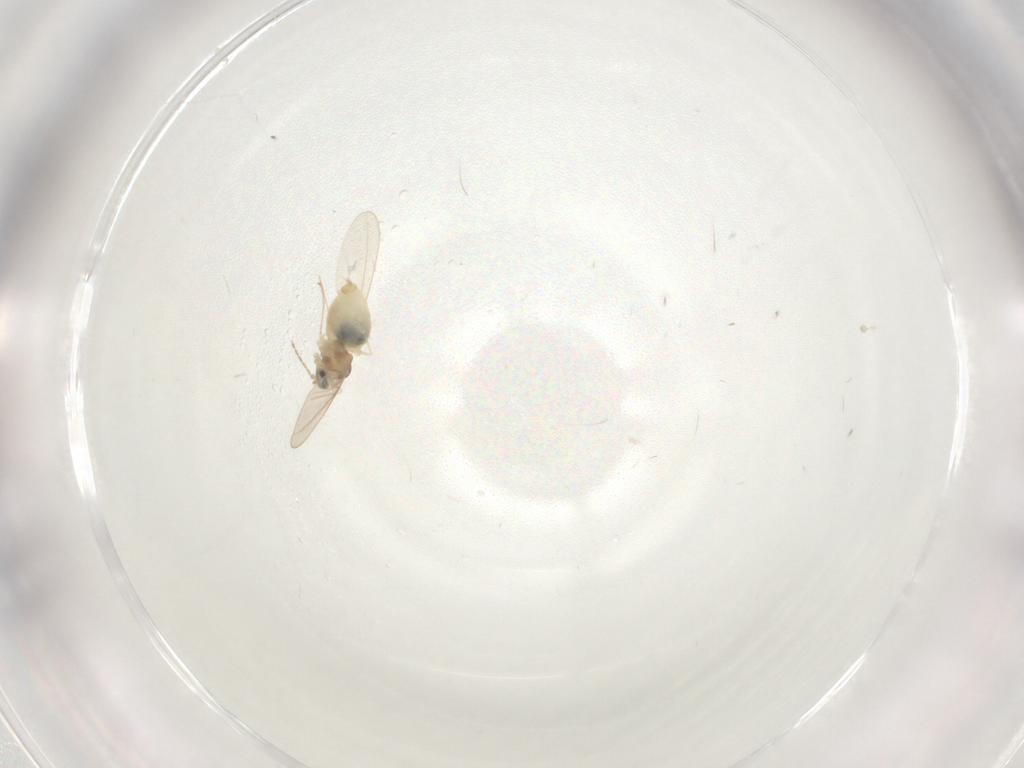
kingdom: Animalia
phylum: Arthropoda
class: Insecta
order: Diptera
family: Cecidomyiidae
